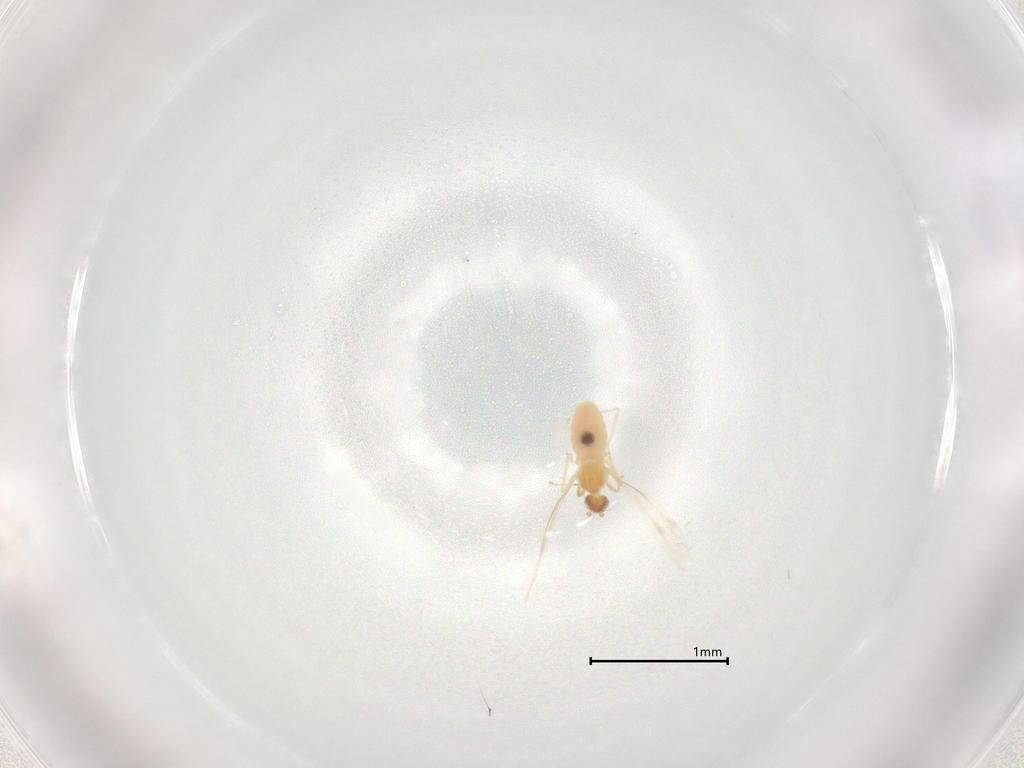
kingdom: Animalia
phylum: Arthropoda
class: Insecta
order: Diptera
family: Cecidomyiidae
